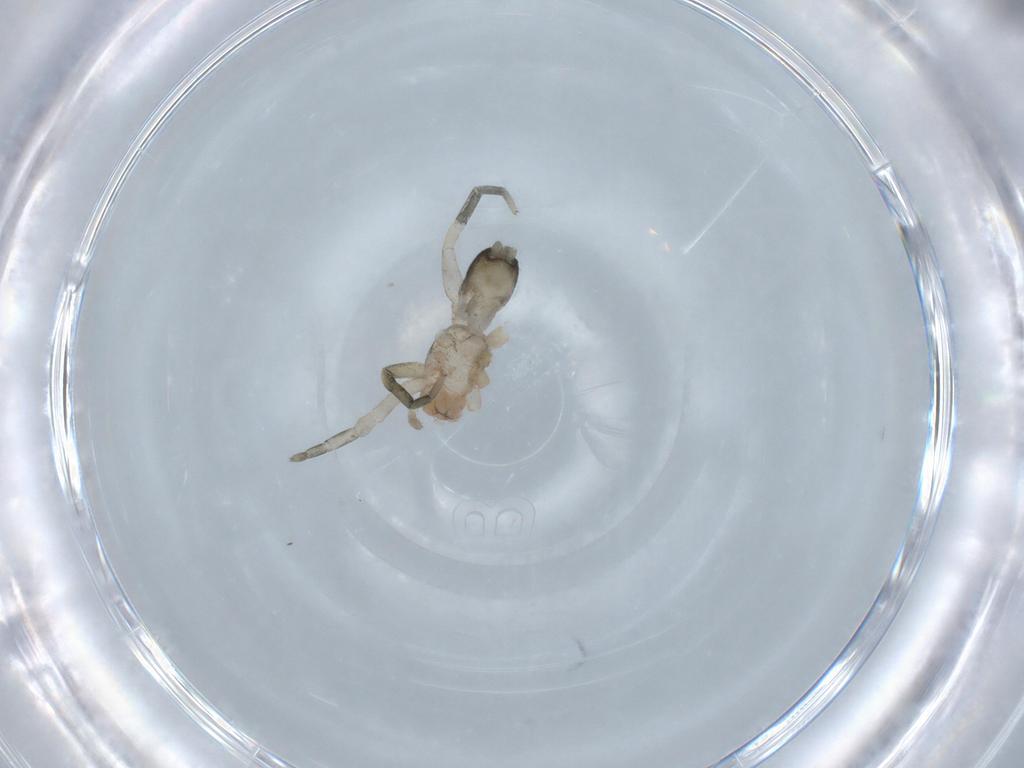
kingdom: Animalia
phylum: Arthropoda
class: Arachnida
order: Araneae
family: Gnaphosidae
